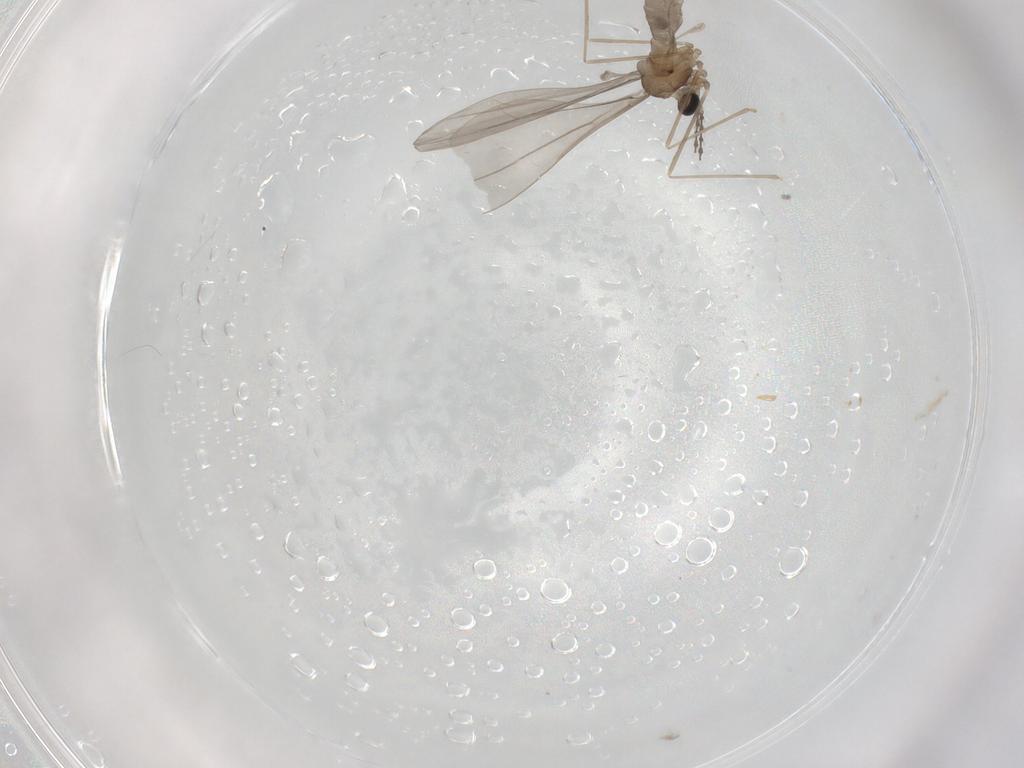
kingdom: Animalia
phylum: Arthropoda
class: Insecta
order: Diptera
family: Cecidomyiidae
